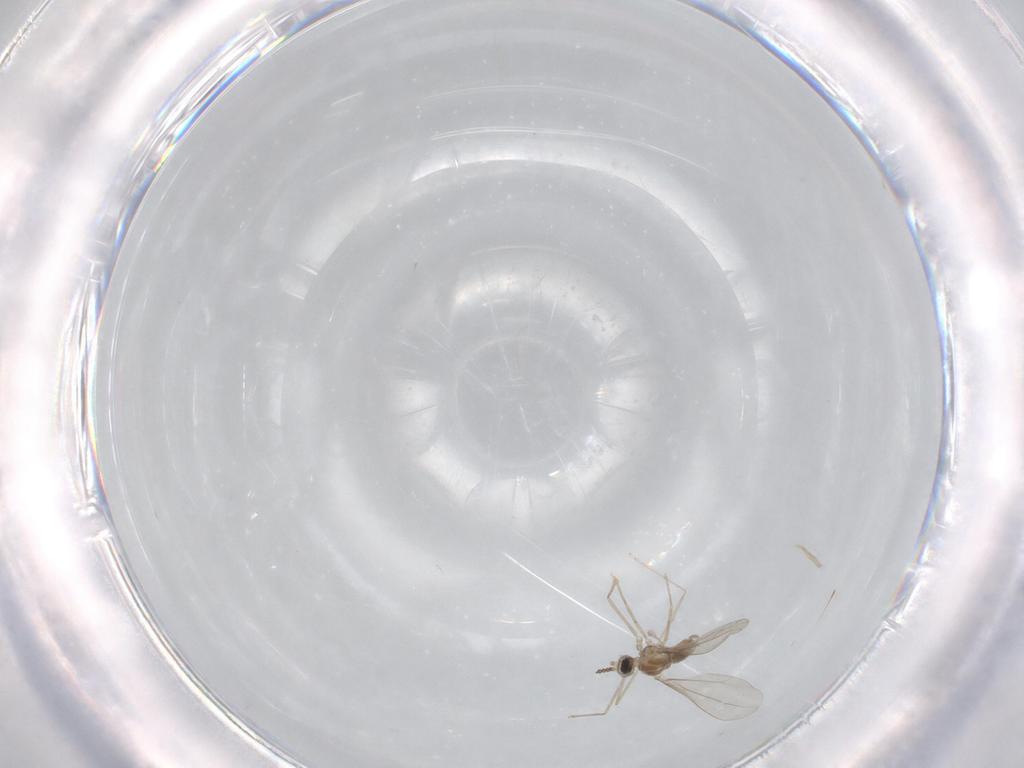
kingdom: Animalia
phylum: Arthropoda
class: Insecta
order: Diptera
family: Cecidomyiidae
